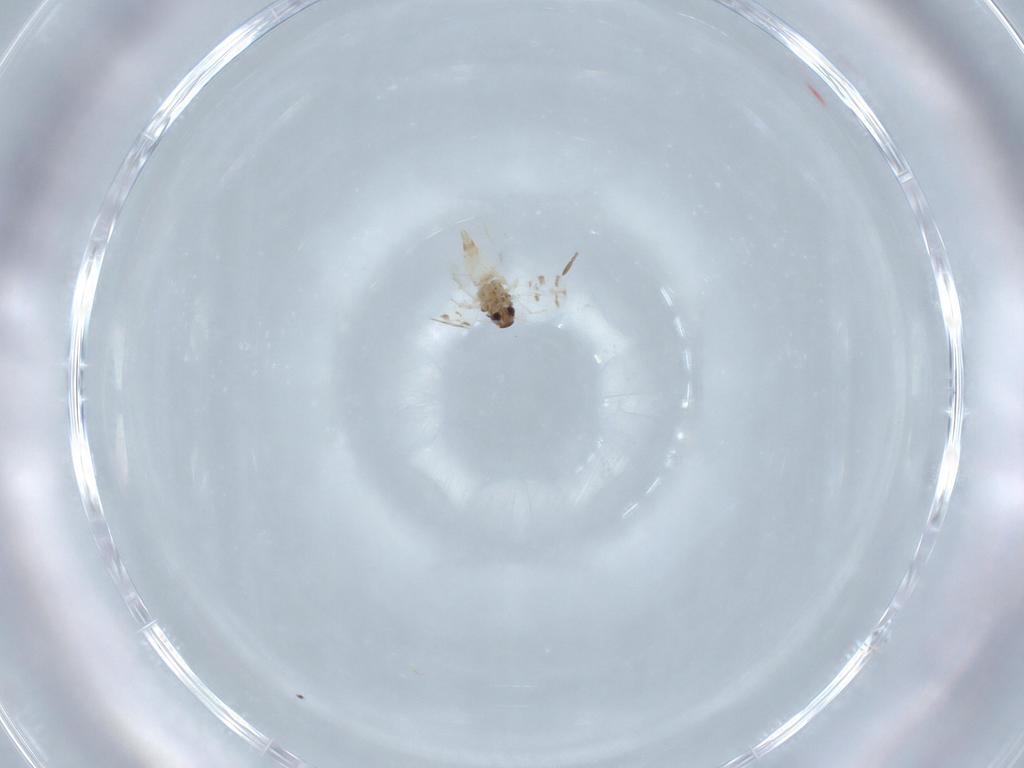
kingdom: Animalia
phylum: Arthropoda
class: Insecta
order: Hemiptera
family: Aleyrodidae
